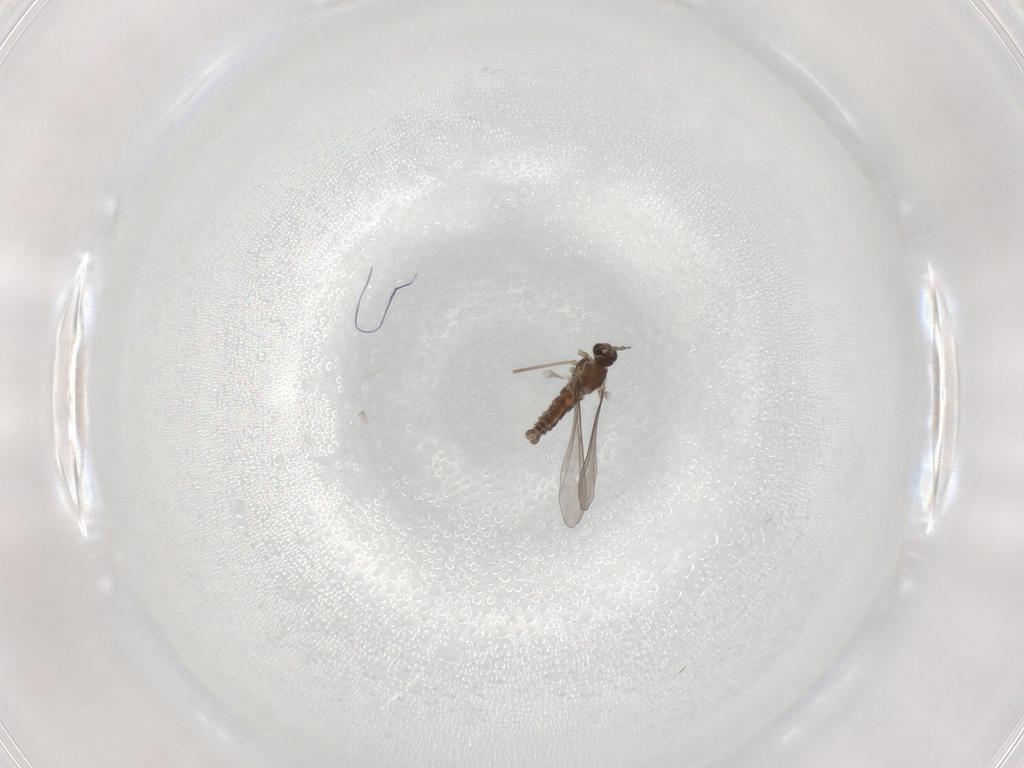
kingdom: Animalia
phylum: Arthropoda
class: Insecta
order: Diptera
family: Cecidomyiidae
